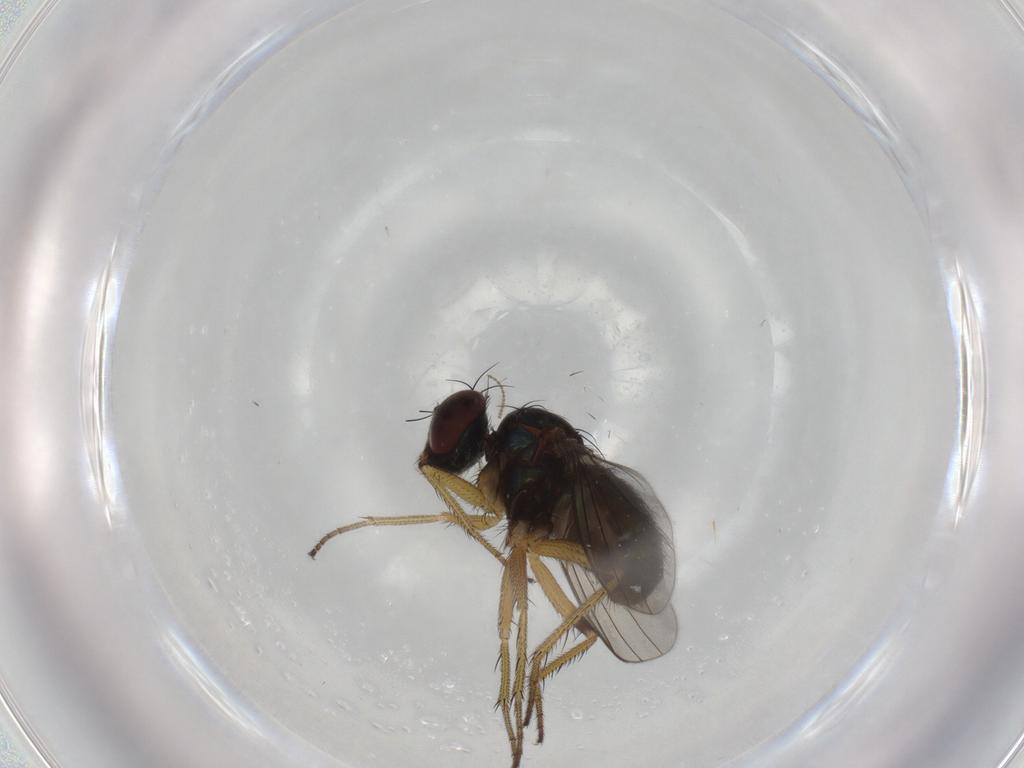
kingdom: Animalia
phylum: Arthropoda
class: Insecta
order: Diptera
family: Dolichopodidae
